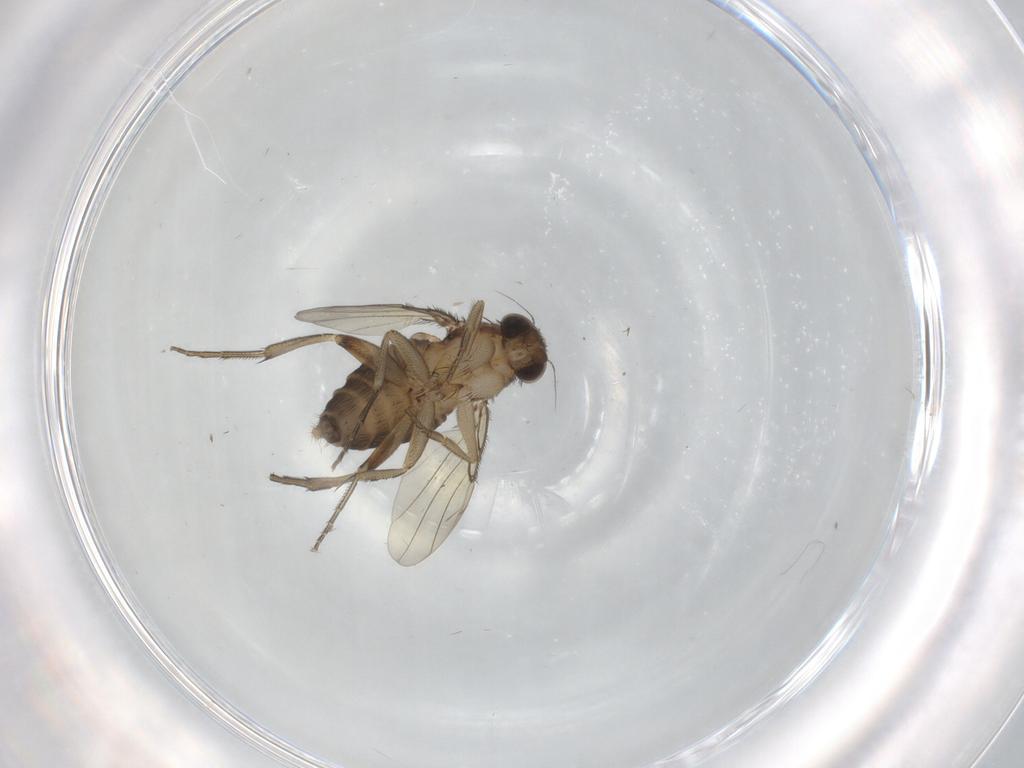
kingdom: Animalia
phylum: Arthropoda
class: Insecta
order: Diptera
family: Phoridae
